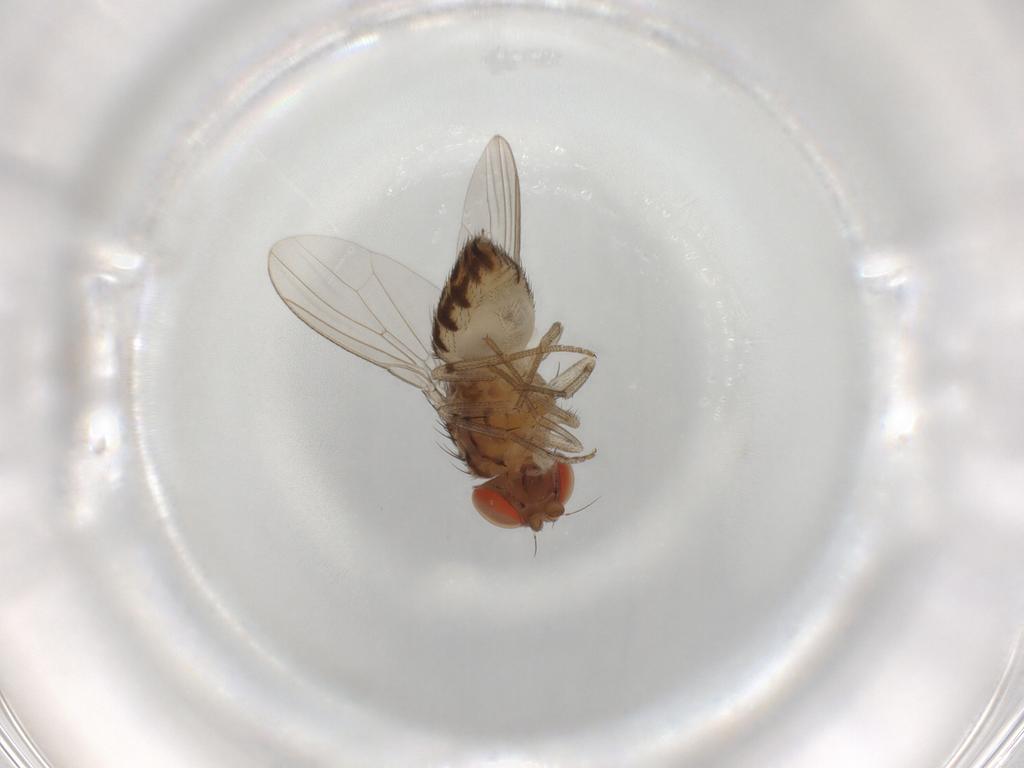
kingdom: Animalia
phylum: Arthropoda
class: Insecta
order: Diptera
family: Drosophilidae
